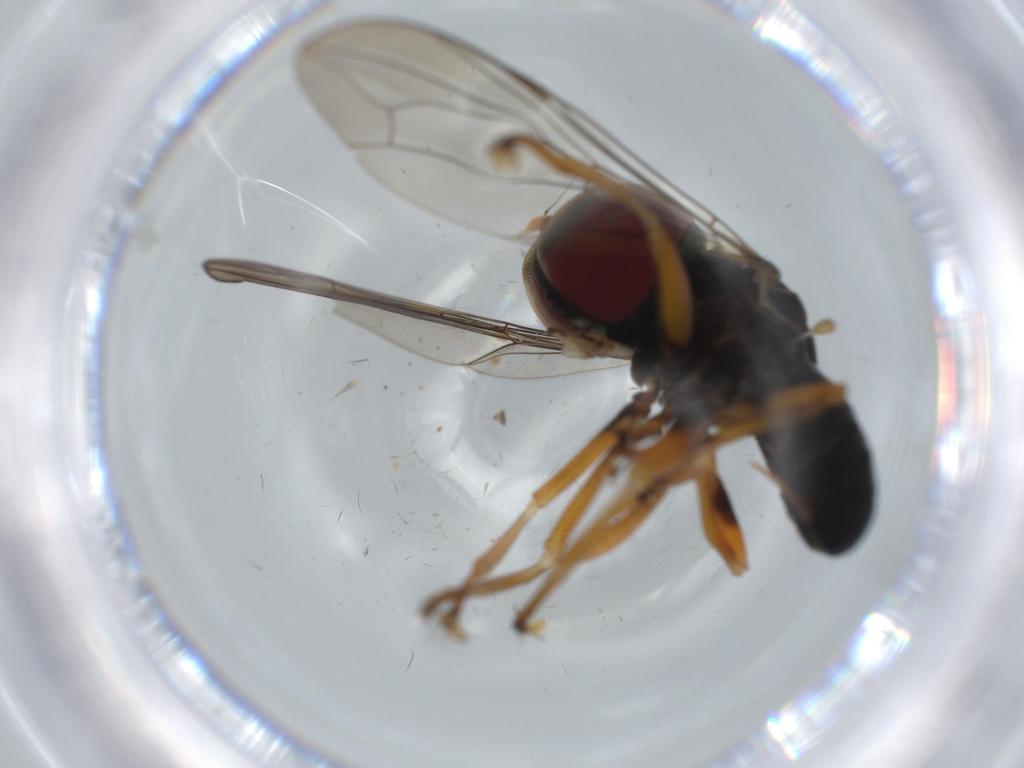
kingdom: Animalia
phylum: Arthropoda
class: Insecta
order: Diptera
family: Pipunculidae
